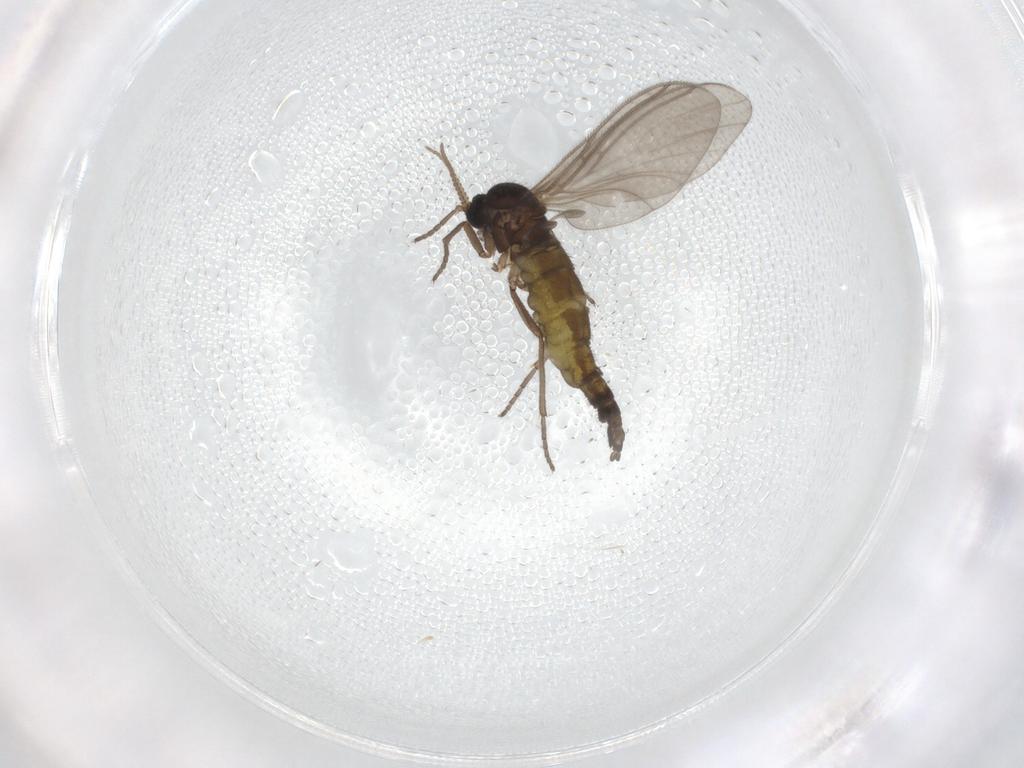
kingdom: Animalia
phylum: Arthropoda
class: Insecta
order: Diptera
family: Sciaridae
